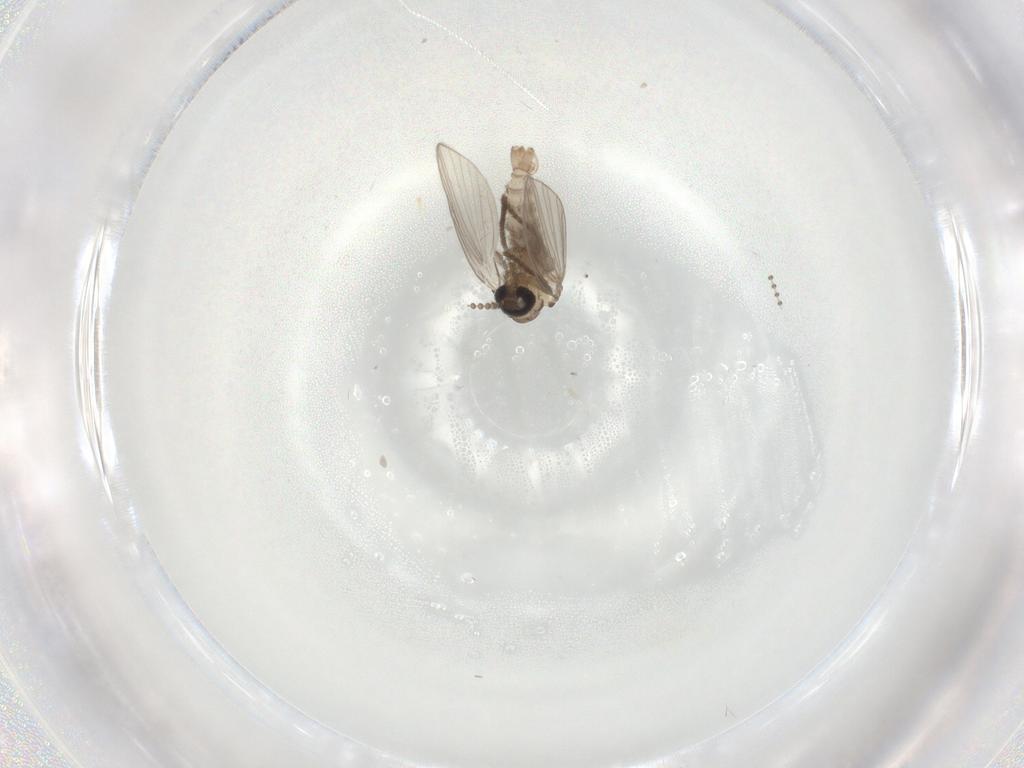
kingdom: Animalia
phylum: Arthropoda
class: Insecta
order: Diptera
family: Psychodidae
